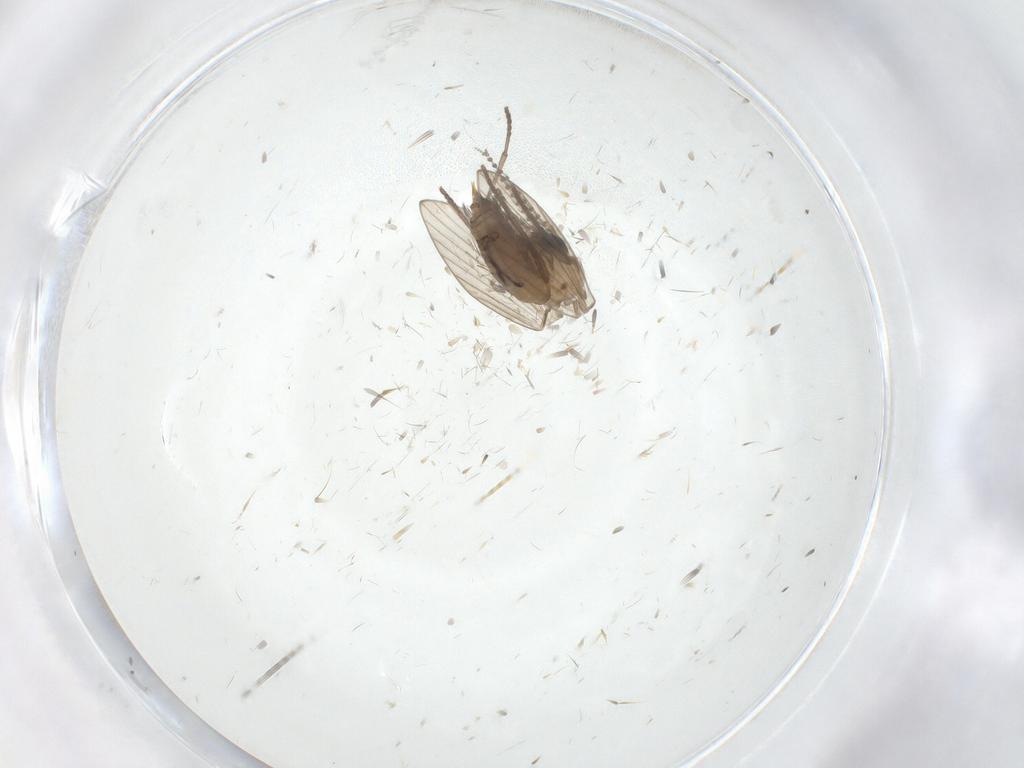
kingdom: Animalia
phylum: Arthropoda
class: Insecta
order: Diptera
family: Psychodidae
